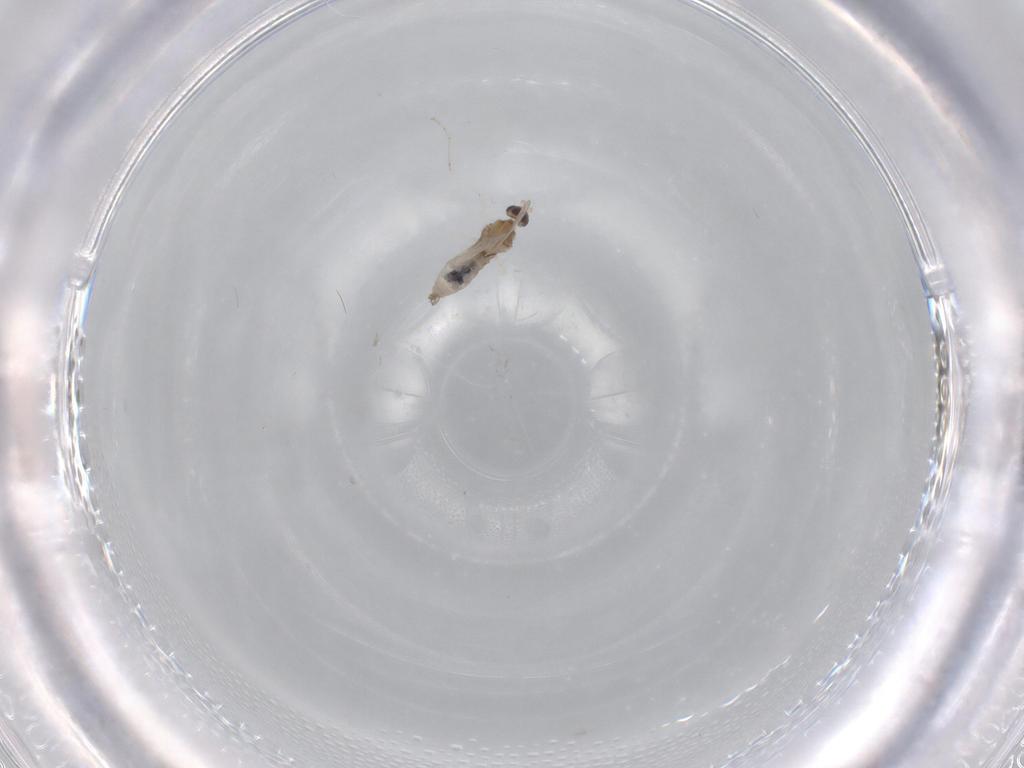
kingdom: Animalia
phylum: Arthropoda
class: Insecta
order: Diptera
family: Cecidomyiidae
